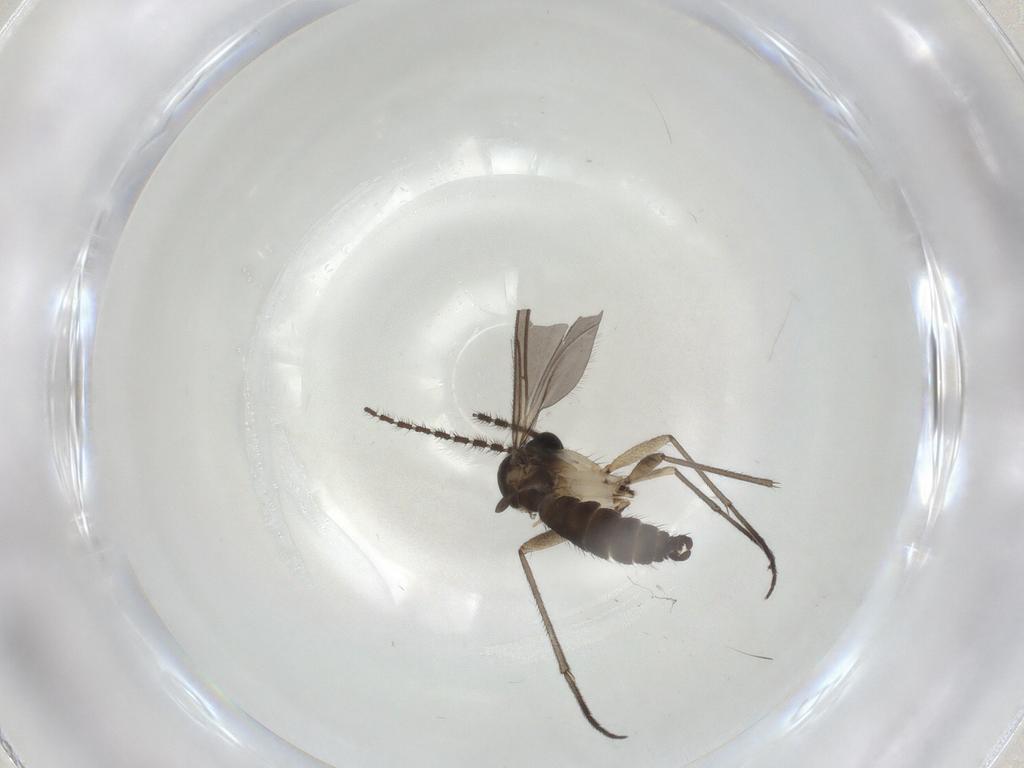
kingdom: Animalia
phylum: Arthropoda
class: Insecta
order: Diptera
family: Sciaridae
